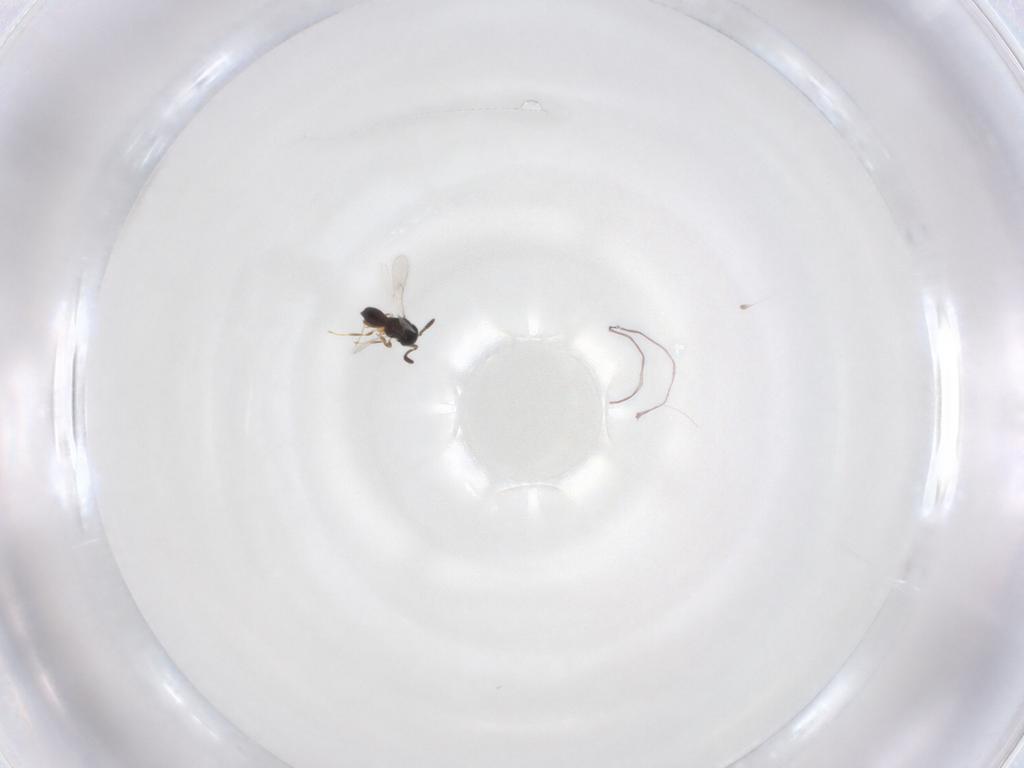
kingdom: Animalia
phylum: Arthropoda
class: Insecta
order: Hymenoptera
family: Scelionidae
